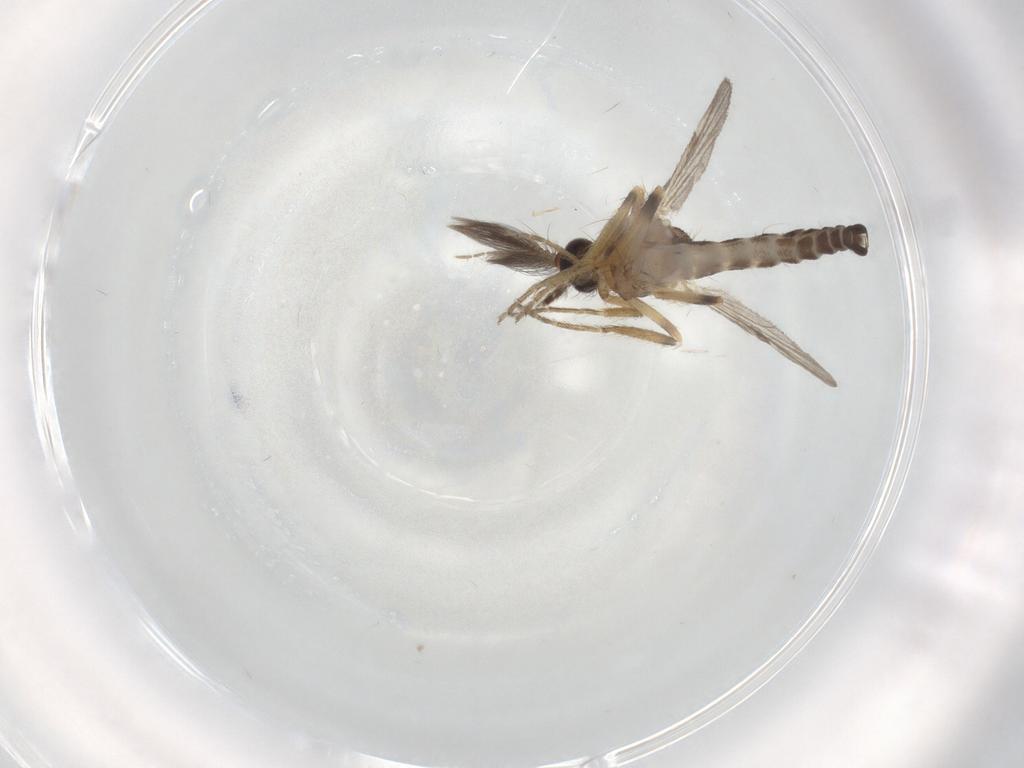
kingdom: Animalia
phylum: Arthropoda
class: Insecta
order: Diptera
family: Ceratopogonidae
